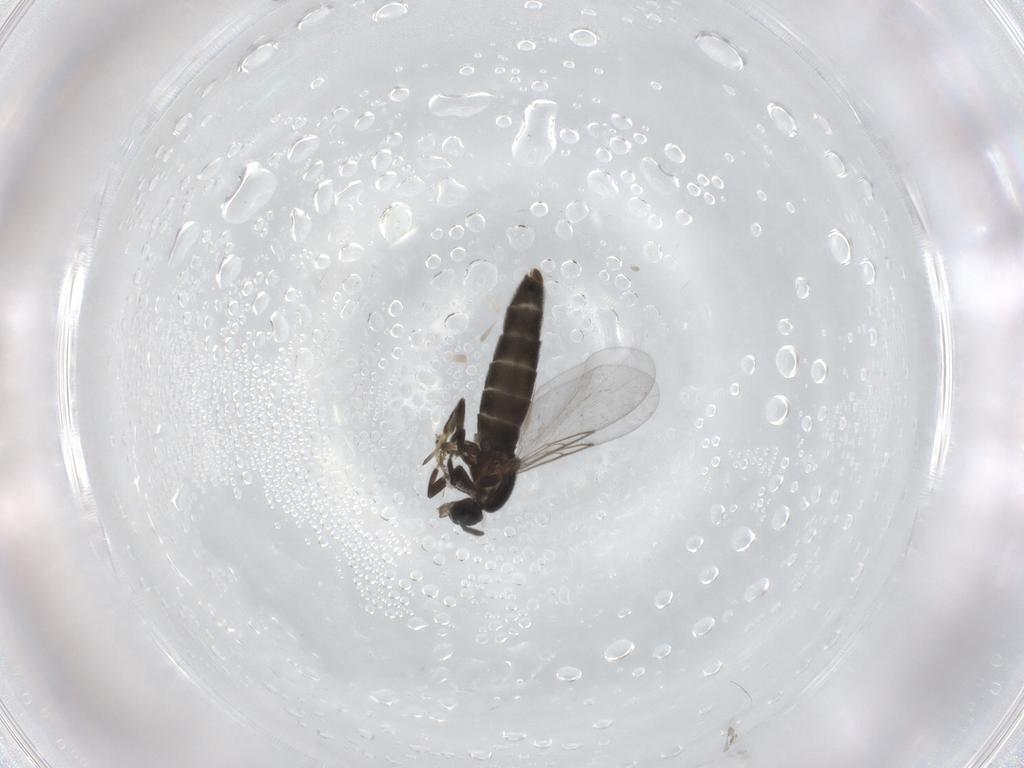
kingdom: Animalia
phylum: Arthropoda
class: Insecta
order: Diptera
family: Scatopsidae
